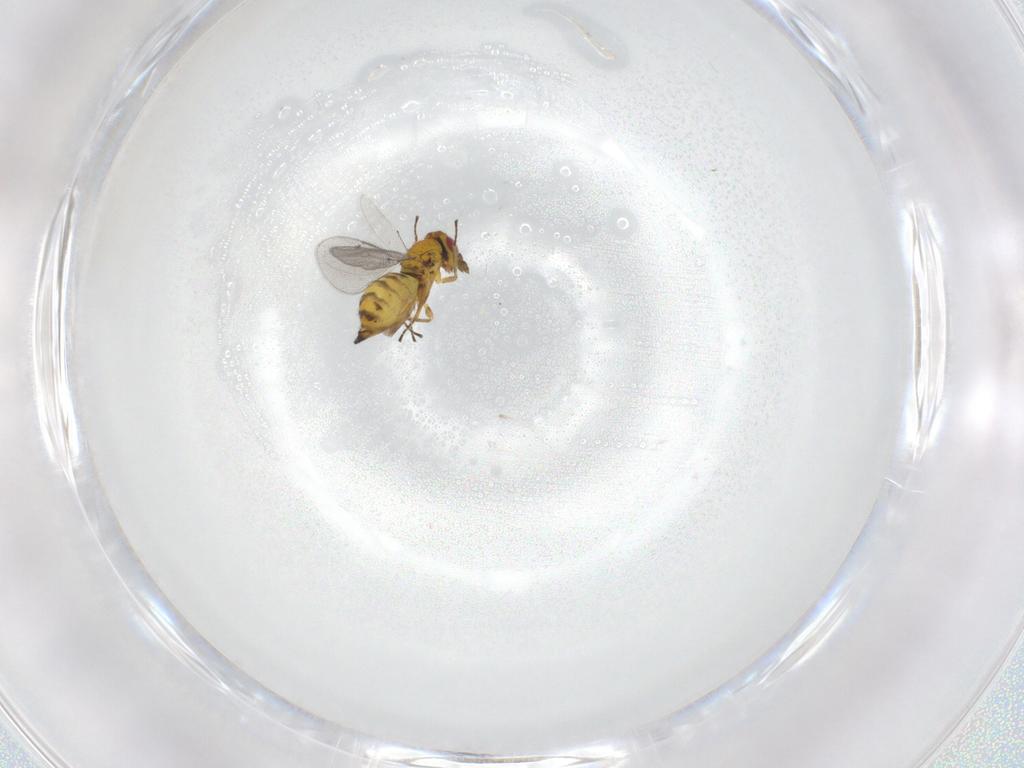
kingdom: Animalia
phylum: Arthropoda
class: Insecta
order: Hymenoptera
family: Eulophidae
